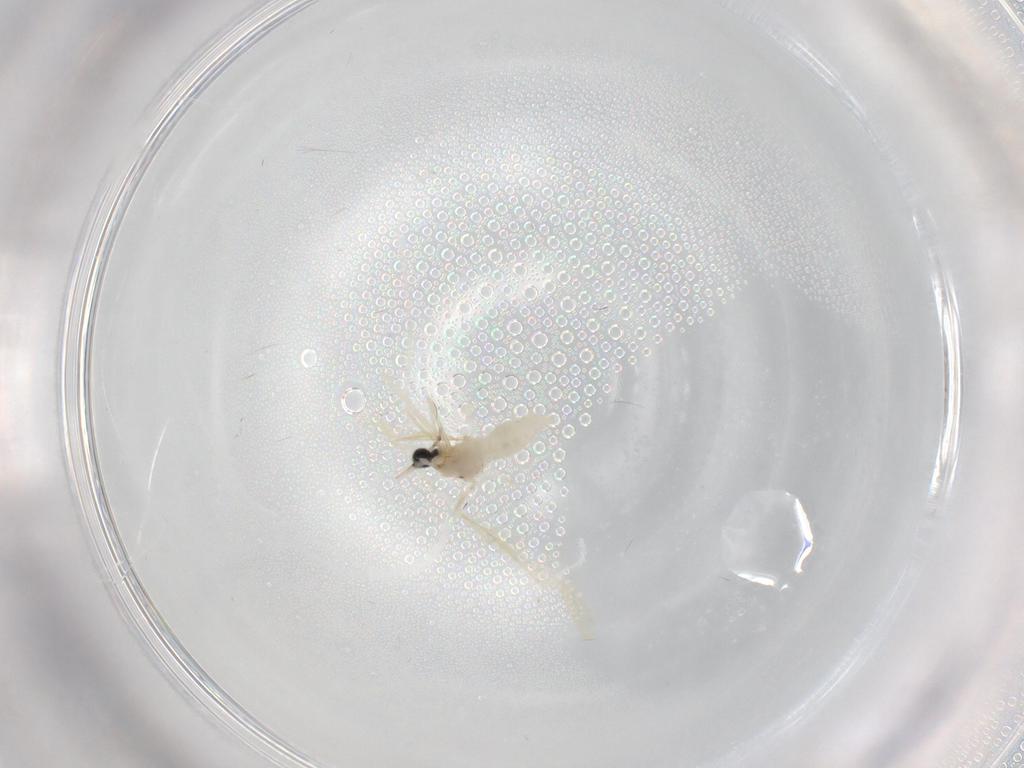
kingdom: Animalia
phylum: Arthropoda
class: Insecta
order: Diptera
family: Cecidomyiidae
